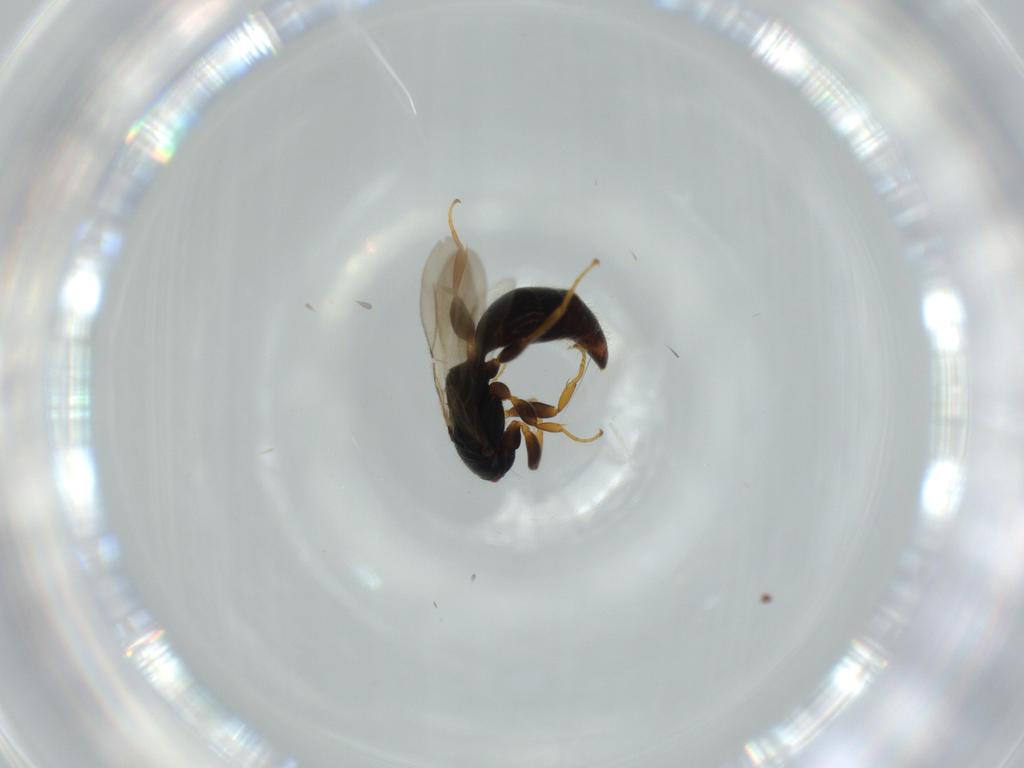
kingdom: Animalia
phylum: Arthropoda
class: Insecta
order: Hymenoptera
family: Bethylidae
